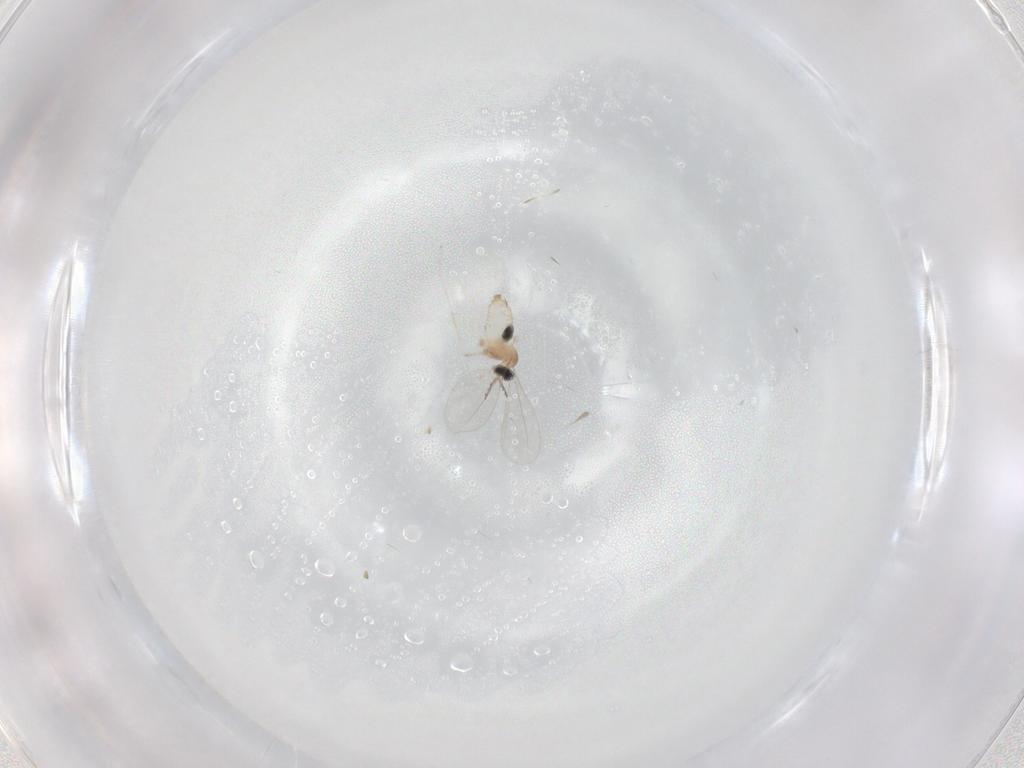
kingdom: Animalia
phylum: Arthropoda
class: Insecta
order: Diptera
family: Cecidomyiidae
